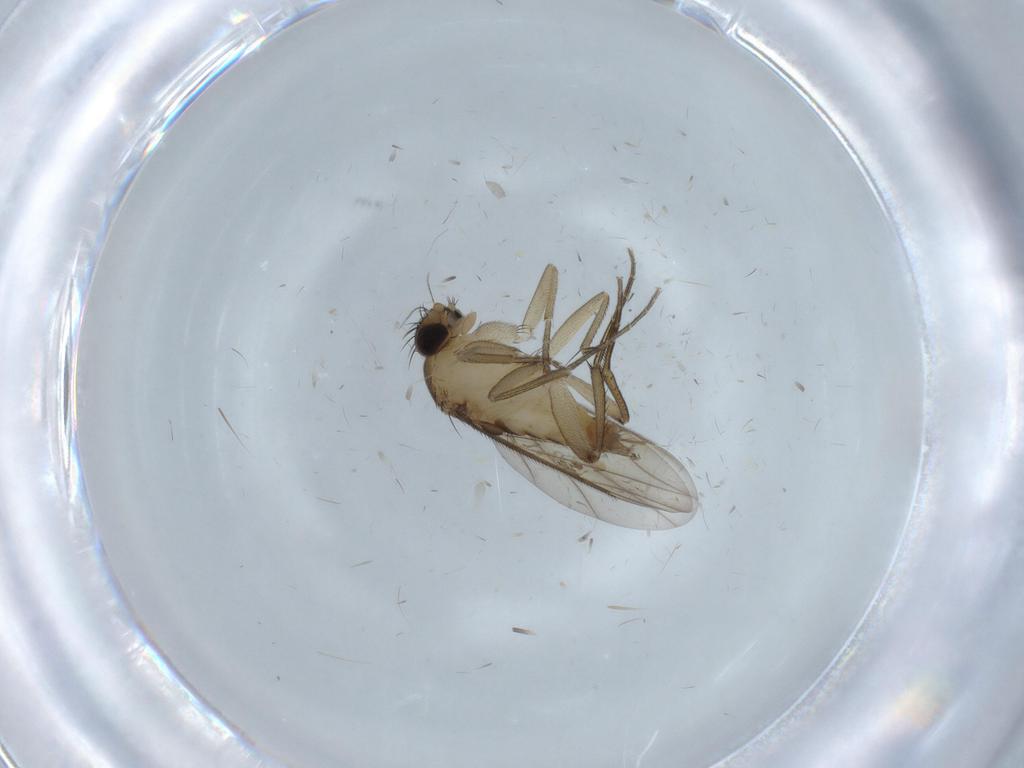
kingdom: Animalia
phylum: Arthropoda
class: Insecta
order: Diptera
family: Phoridae
